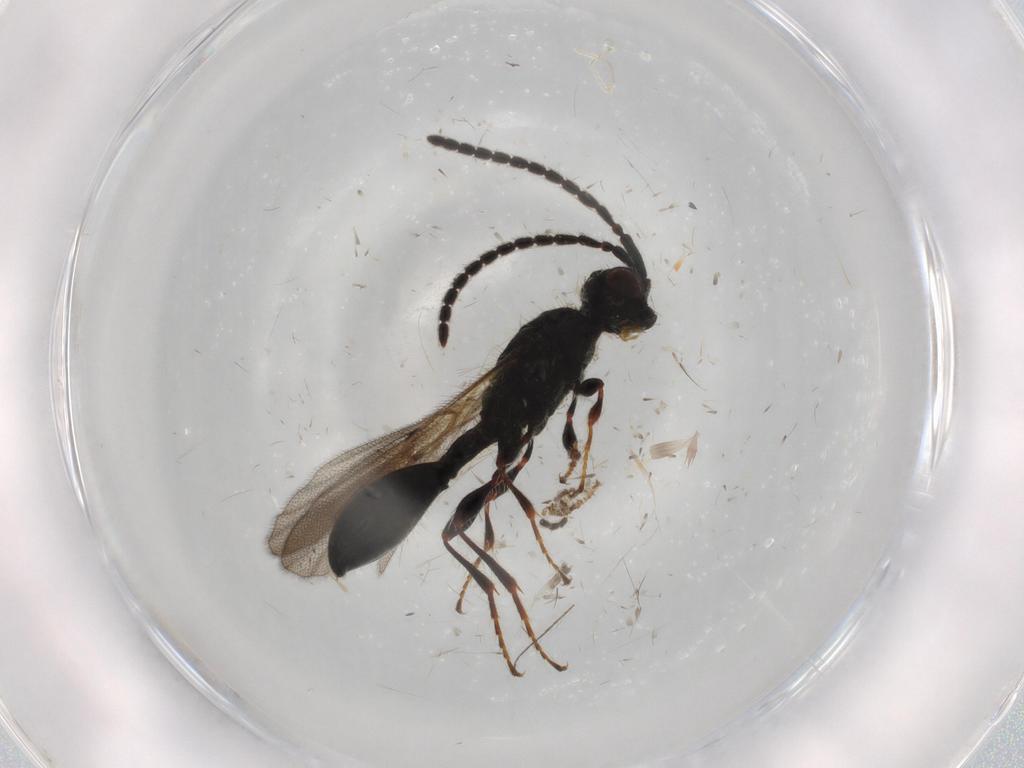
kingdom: Animalia
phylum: Arthropoda
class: Insecta
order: Hymenoptera
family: Diapriidae
